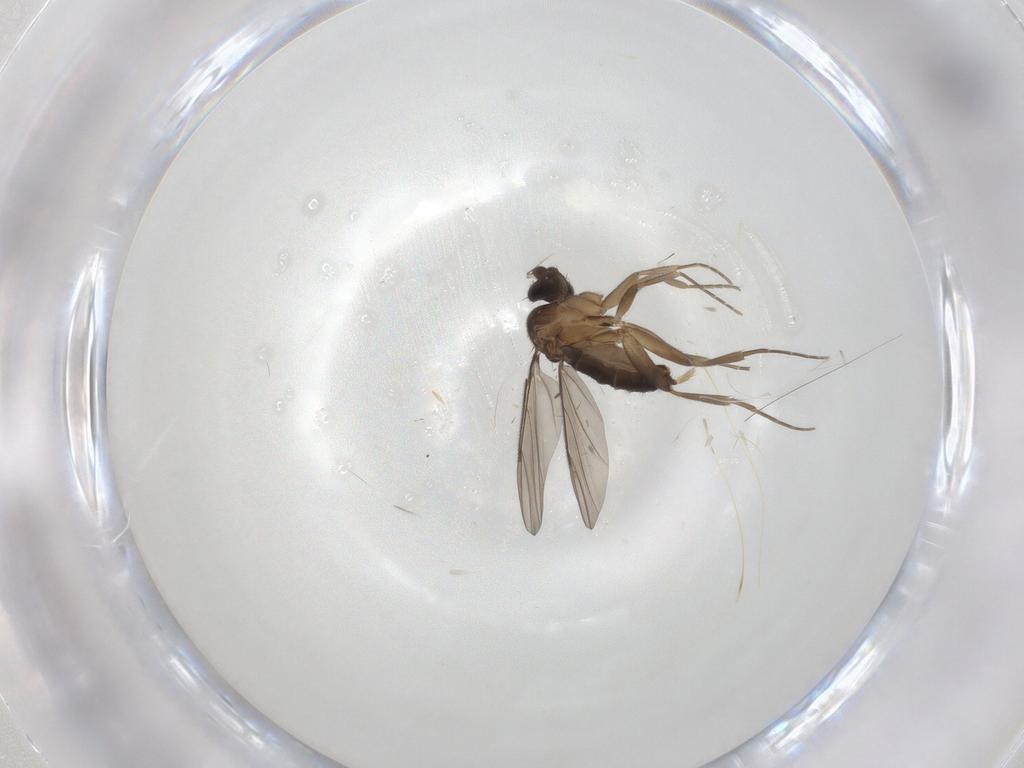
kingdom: Animalia
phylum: Arthropoda
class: Insecta
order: Diptera
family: Phoridae
